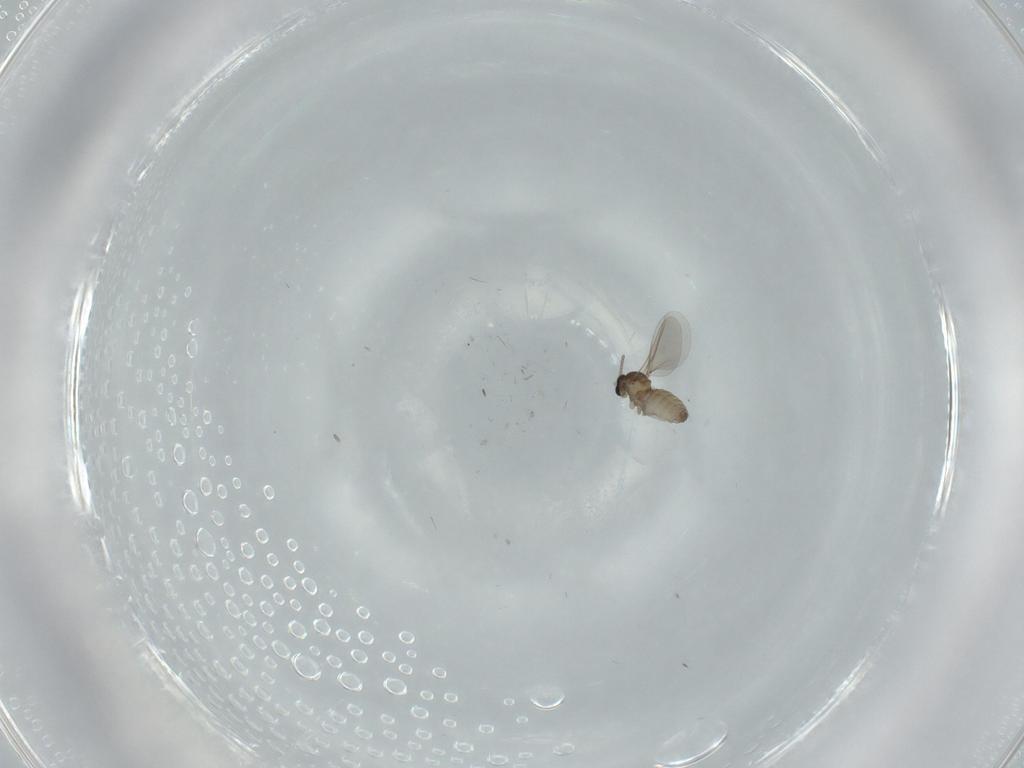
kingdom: Animalia
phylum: Arthropoda
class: Insecta
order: Diptera
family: Cecidomyiidae
